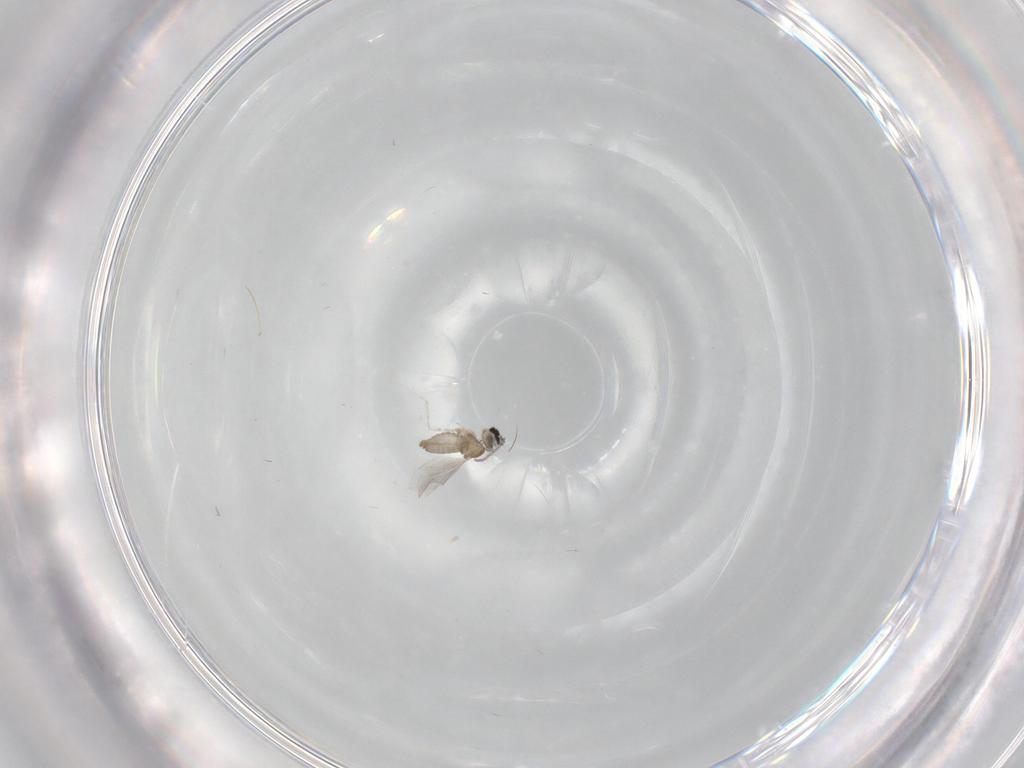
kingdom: Animalia
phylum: Arthropoda
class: Insecta
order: Diptera
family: Cecidomyiidae
